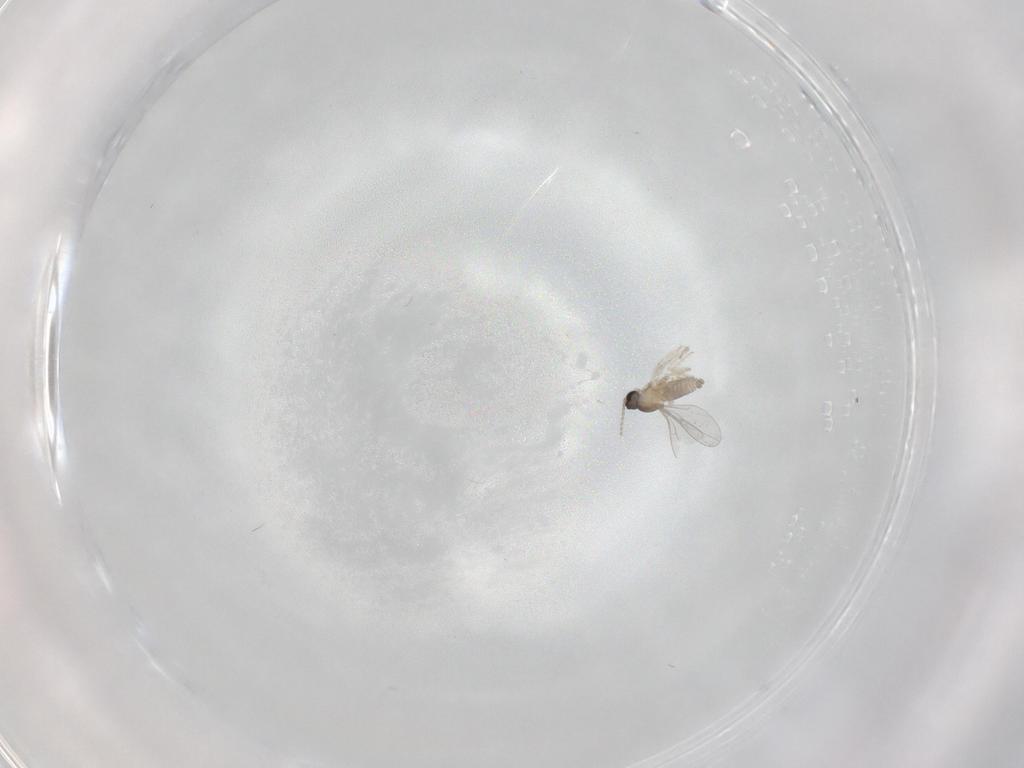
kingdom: Animalia
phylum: Arthropoda
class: Insecta
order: Diptera
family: Cecidomyiidae
